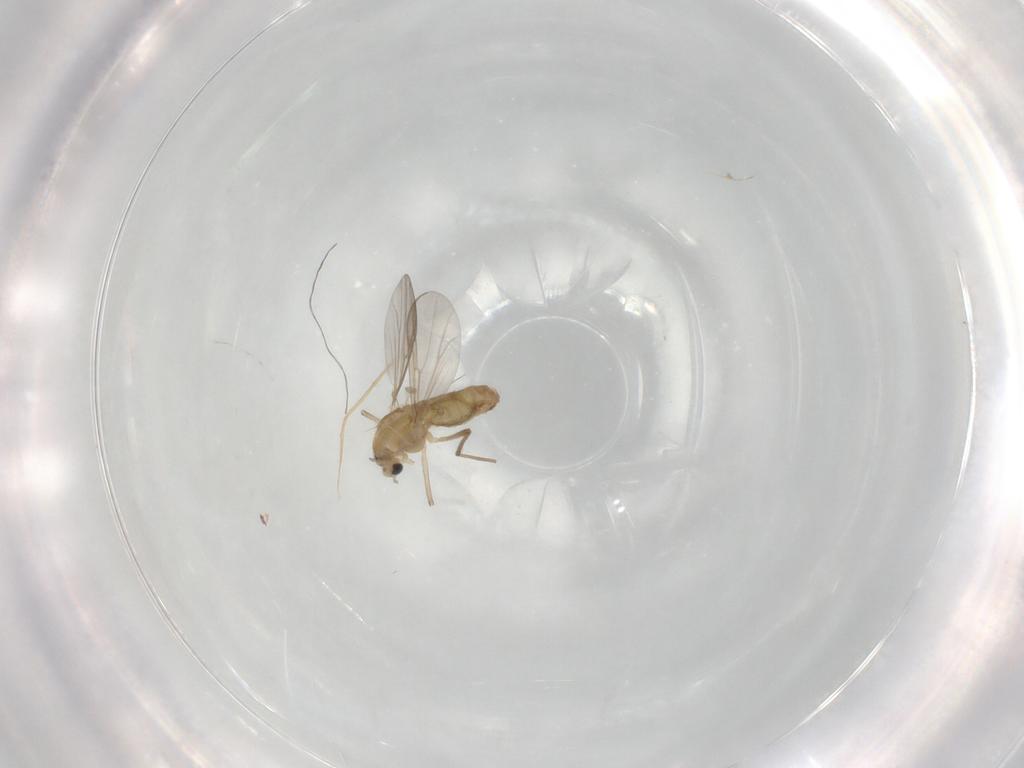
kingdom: Animalia
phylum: Arthropoda
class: Insecta
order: Diptera
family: Chironomidae
